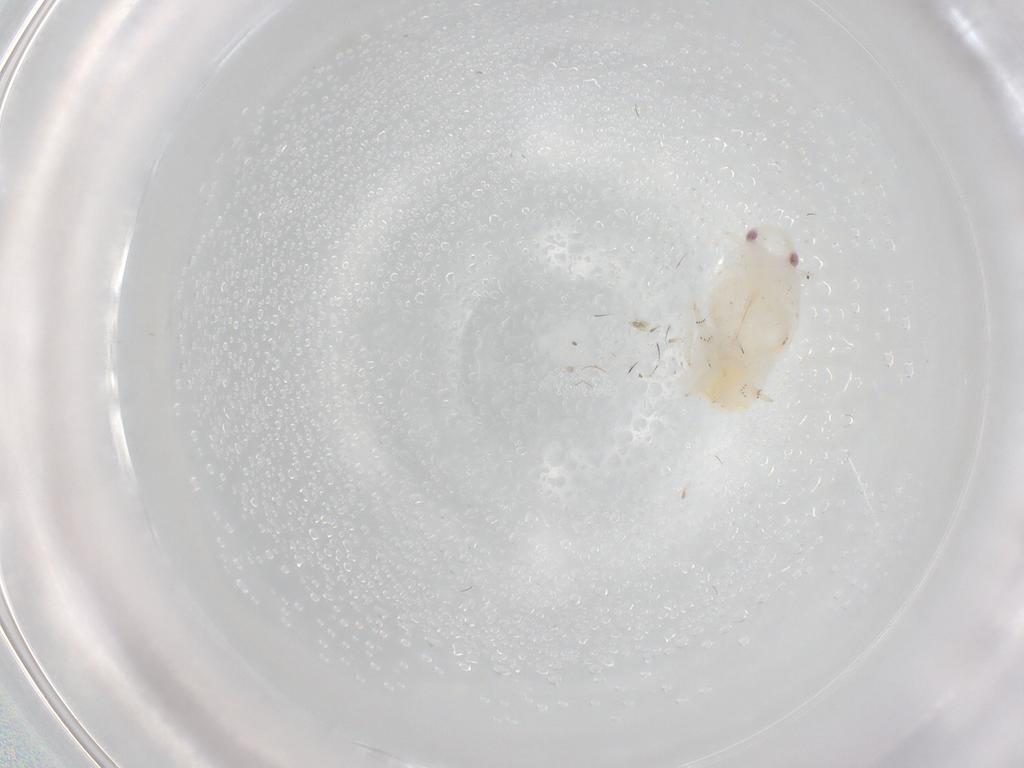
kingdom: Animalia
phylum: Arthropoda
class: Insecta
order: Hemiptera
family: Flatidae
